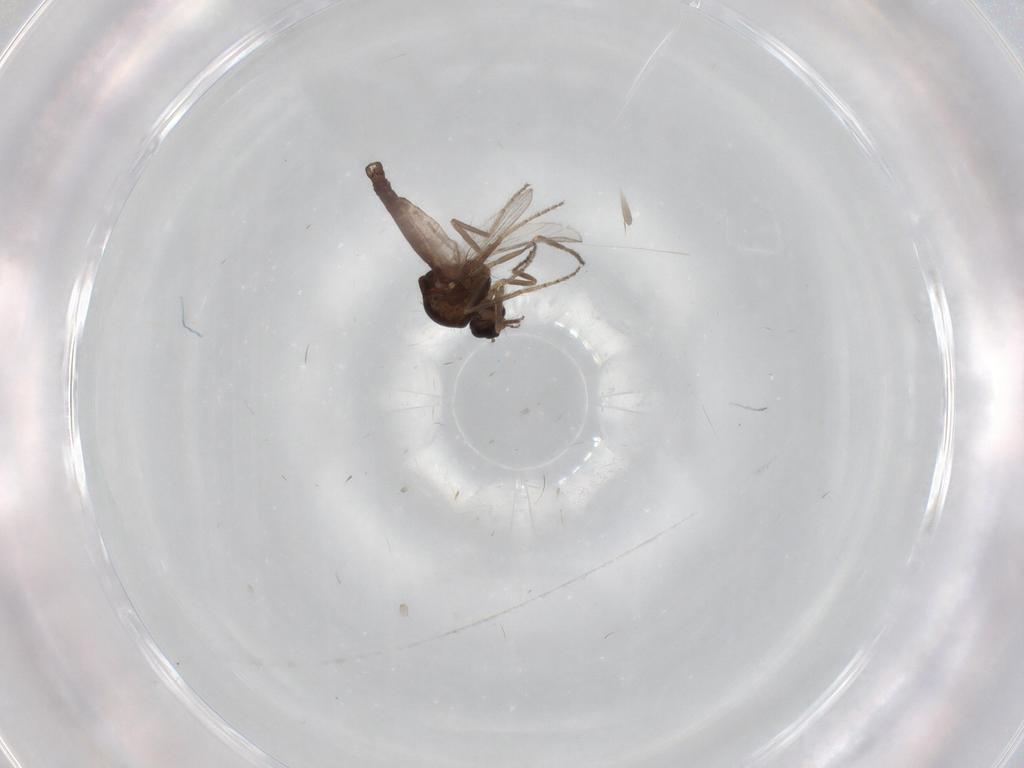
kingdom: Animalia
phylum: Arthropoda
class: Insecta
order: Diptera
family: Ceratopogonidae
